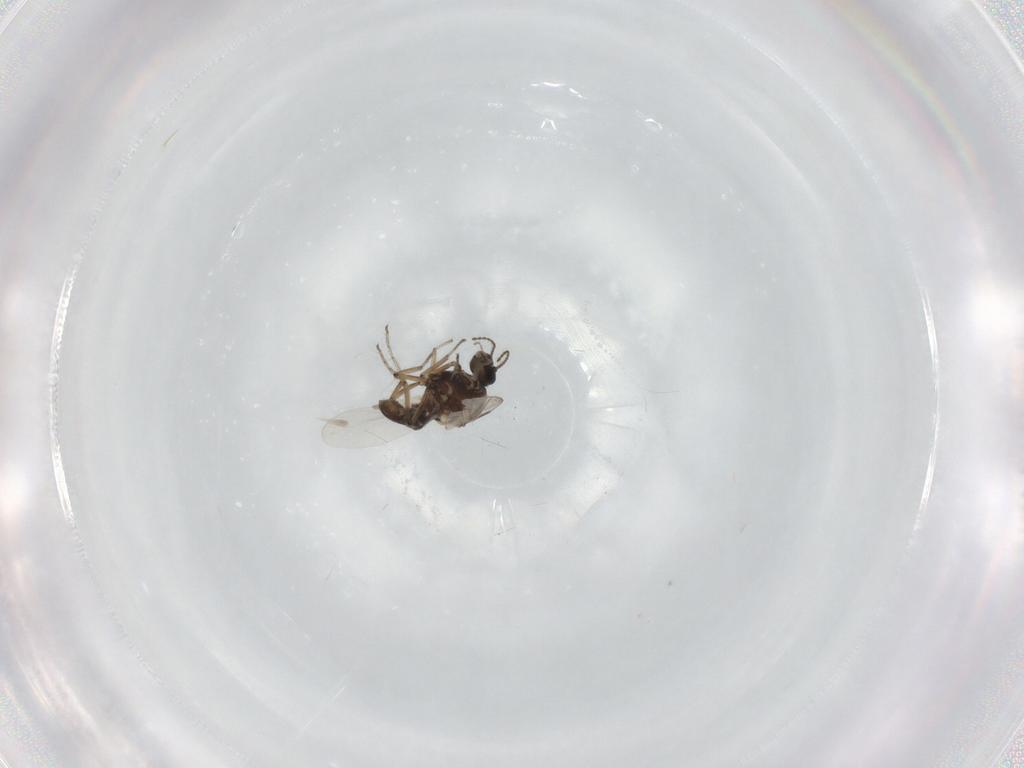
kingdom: Animalia
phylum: Arthropoda
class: Insecta
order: Diptera
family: Ceratopogonidae
